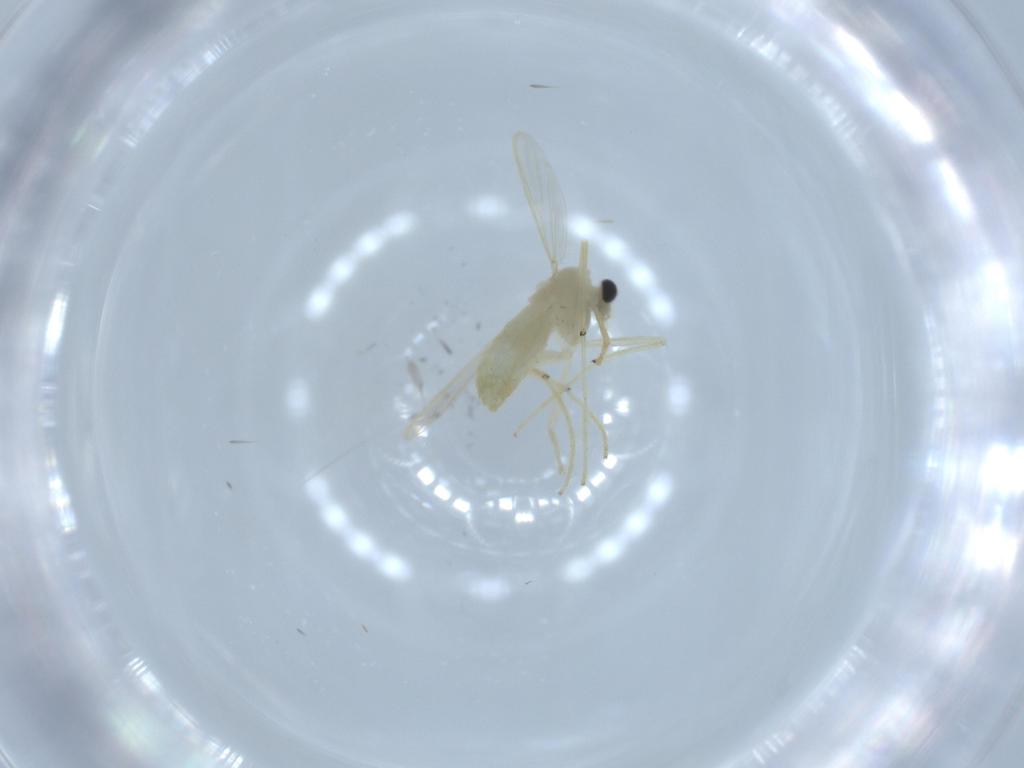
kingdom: Animalia
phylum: Arthropoda
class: Insecta
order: Diptera
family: Chironomidae
